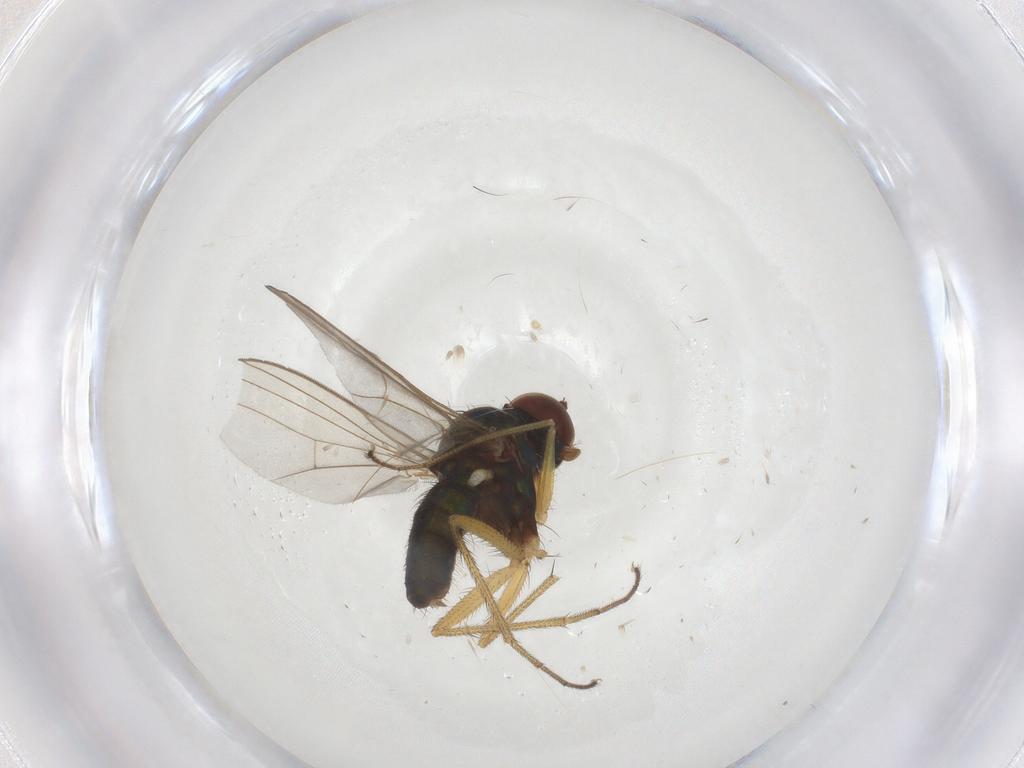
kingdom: Animalia
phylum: Arthropoda
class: Insecta
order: Diptera
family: Dolichopodidae
